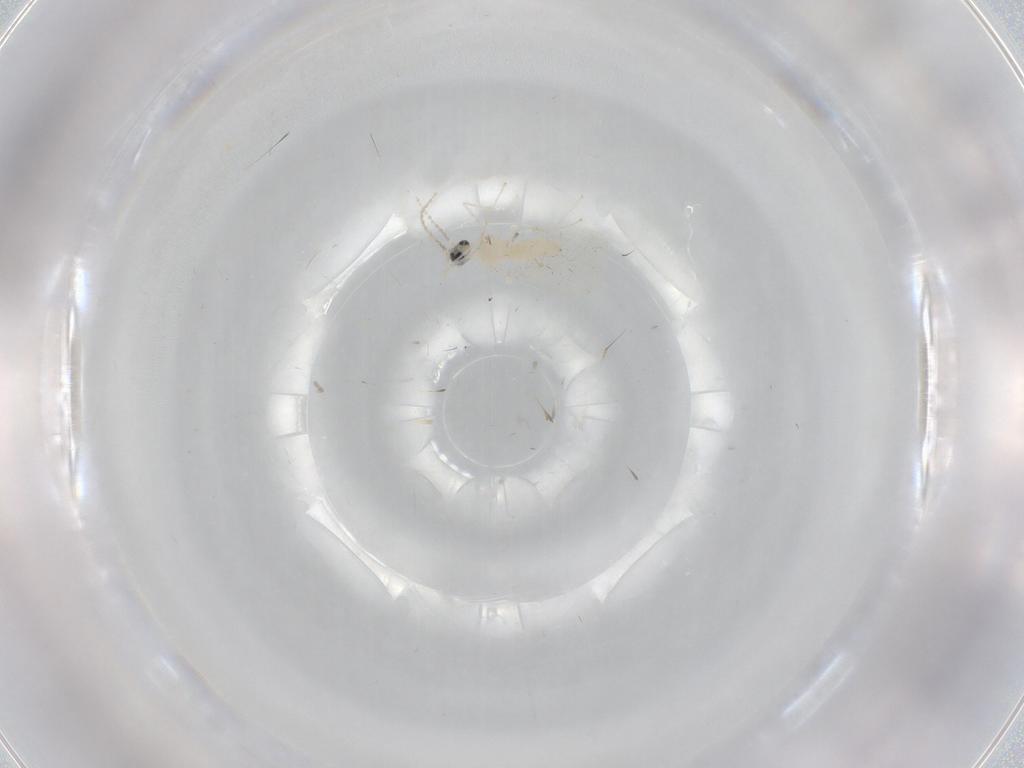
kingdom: Animalia
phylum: Arthropoda
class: Insecta
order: Diptera
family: Cecidomyiidae
